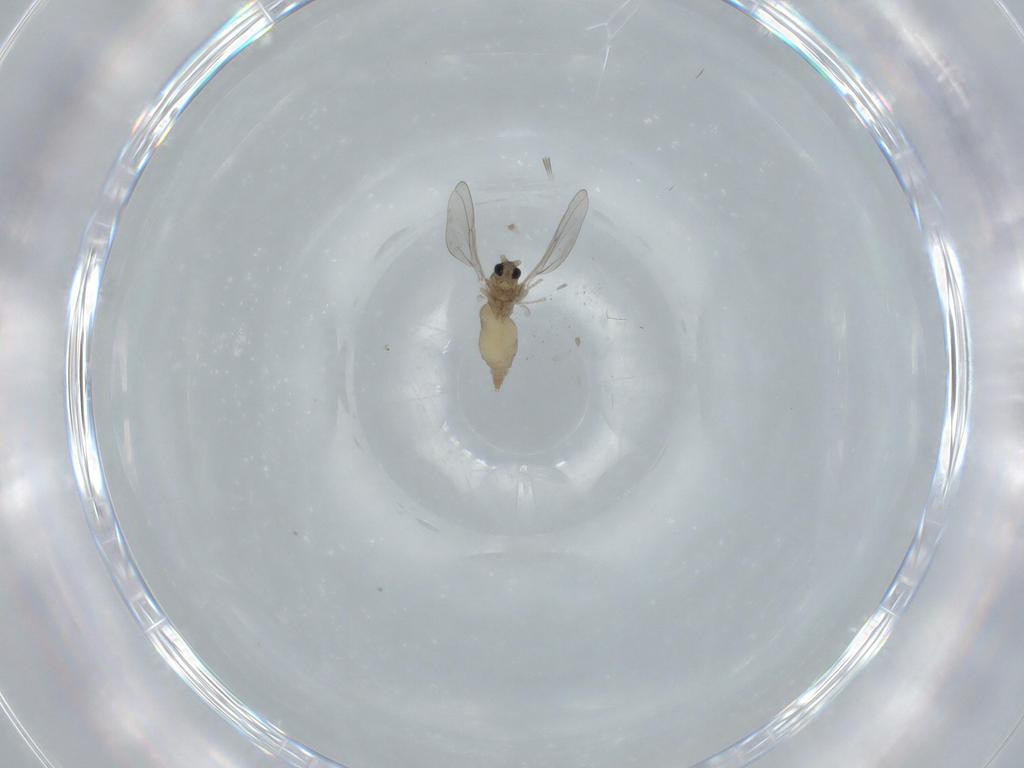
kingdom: Animalia
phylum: Arthropoda
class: Insecta
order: Diptera
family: Cecidomyiidae
